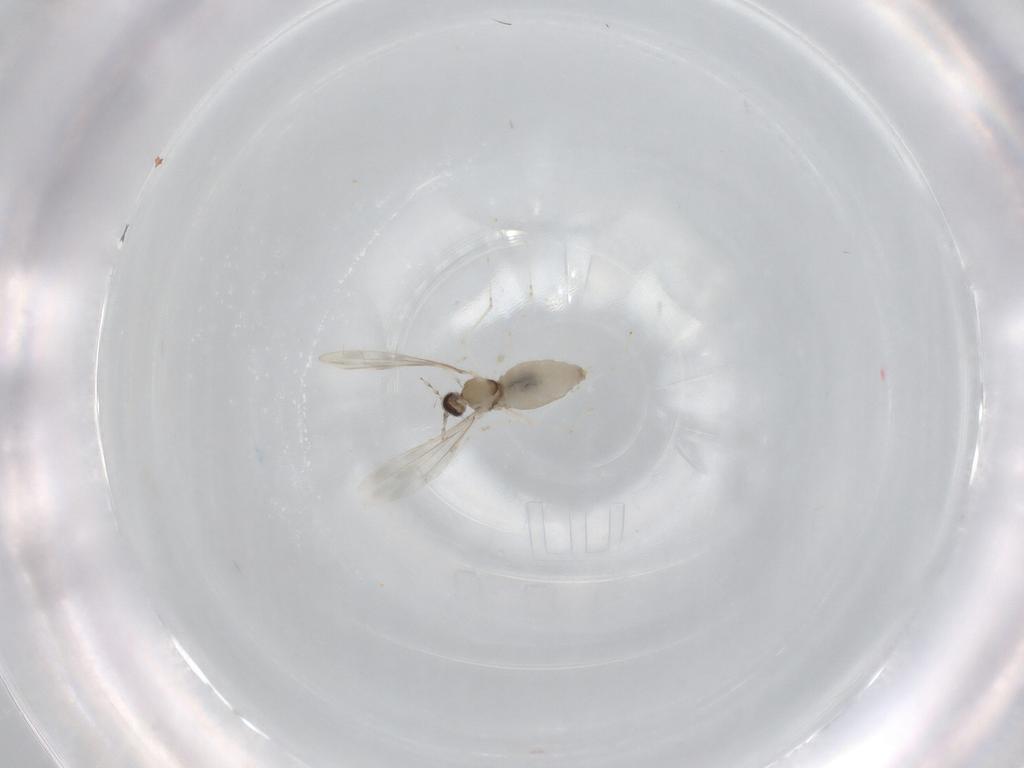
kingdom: Animalia
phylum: Arthropoda
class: Insecta
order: Diptera
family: Cecidomyiidae
